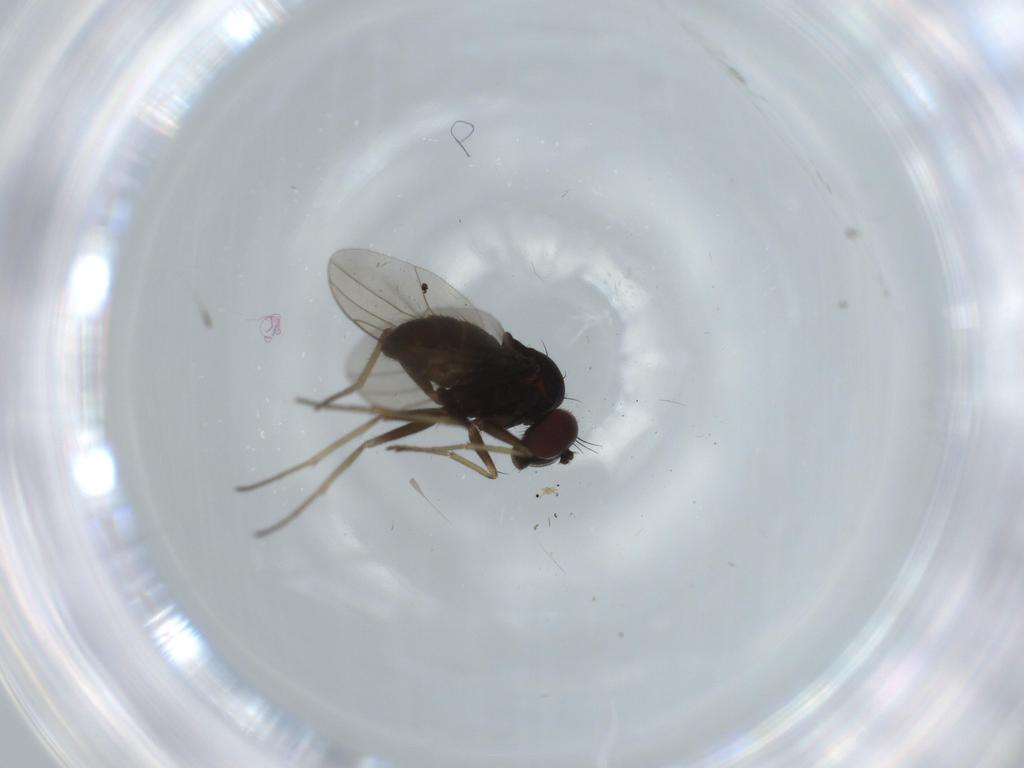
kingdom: Animalia
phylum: Arthropoda
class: Insecta
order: Diptera
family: Dolichopodidae
